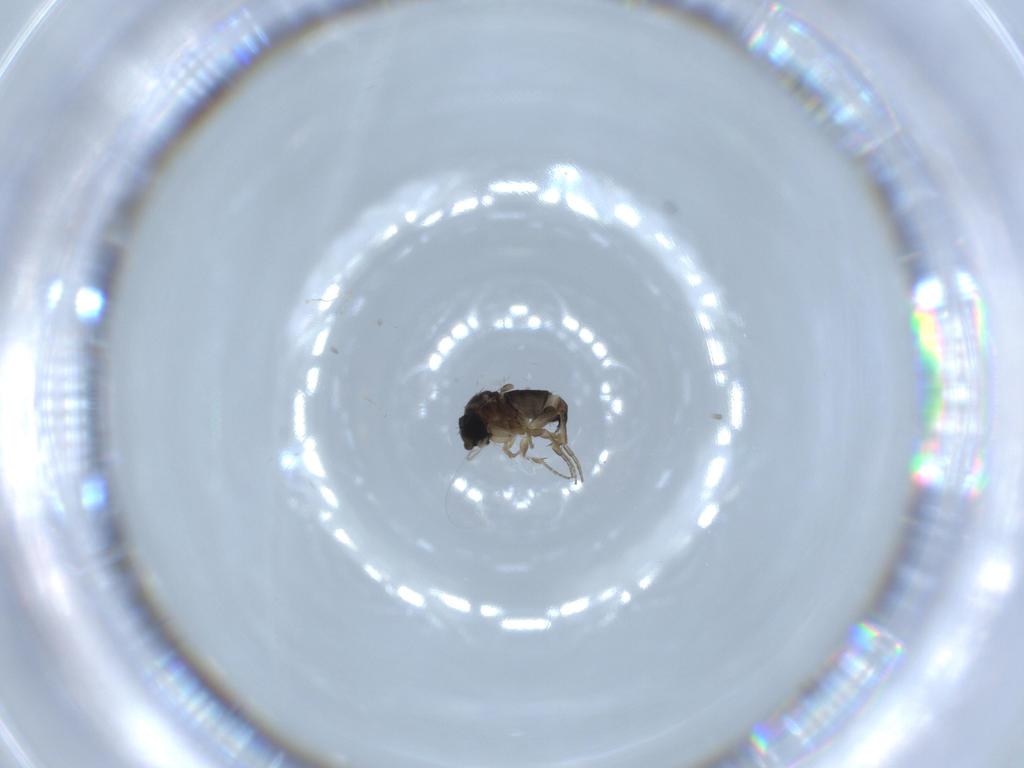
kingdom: Animalia
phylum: Arthropoda
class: Insecta
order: Diptera
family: Phoridae
